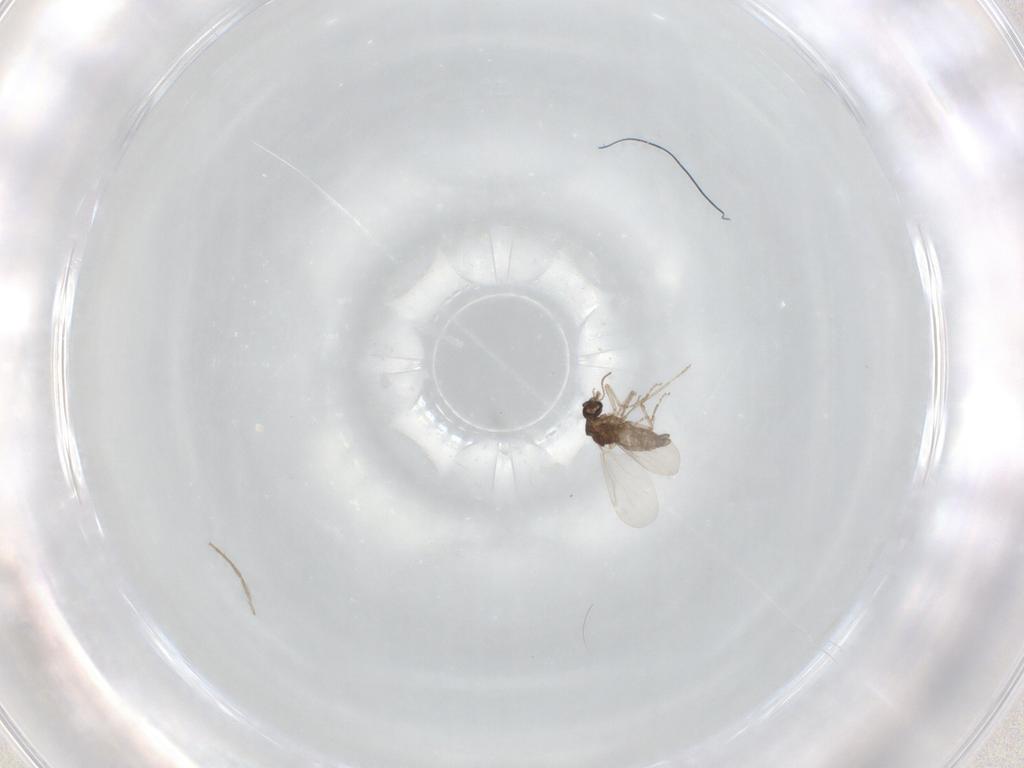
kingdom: Animalia
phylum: Arthropoda
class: Insecta
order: Diptera
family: Ceratopogonidae
